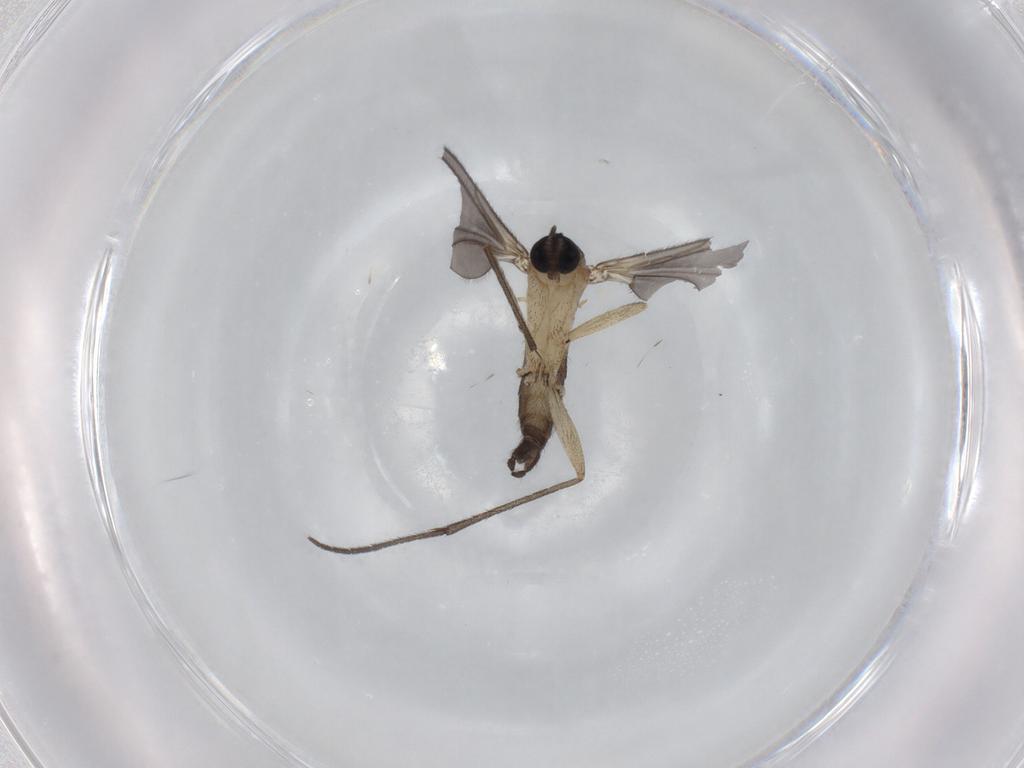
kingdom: Animalia
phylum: Arthropoda
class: Insecta
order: Diptera
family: Sciaridae
